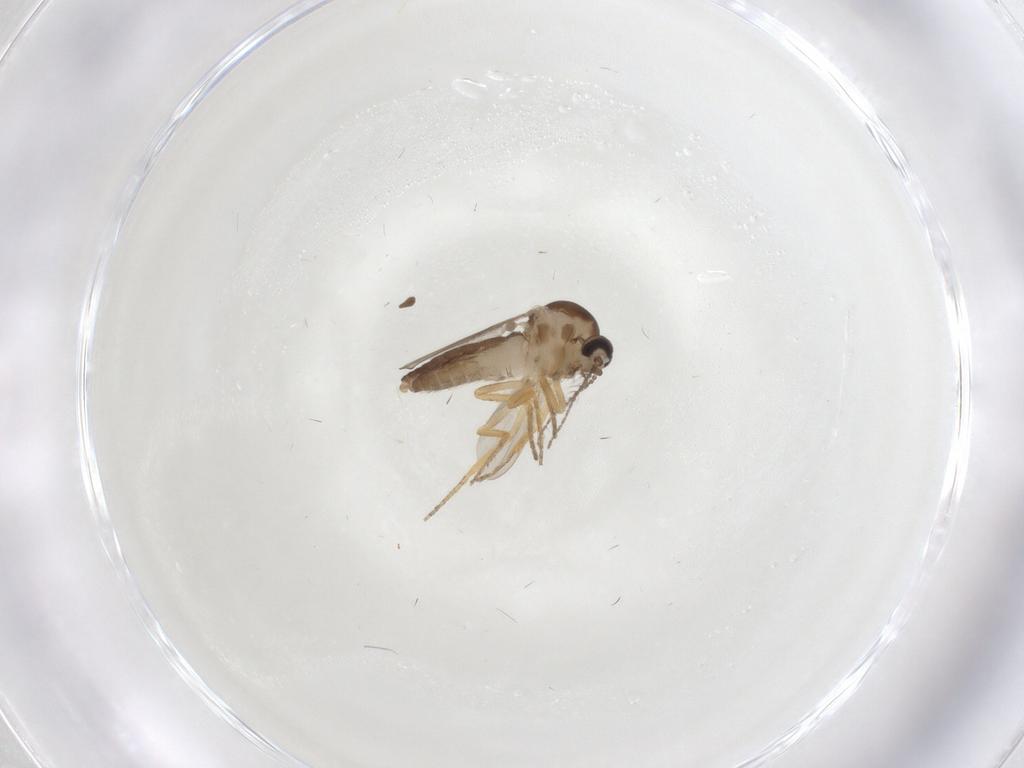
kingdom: Animalia
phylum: Arthropoda
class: Insecta
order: Diptera
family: Ceratopogonidae
